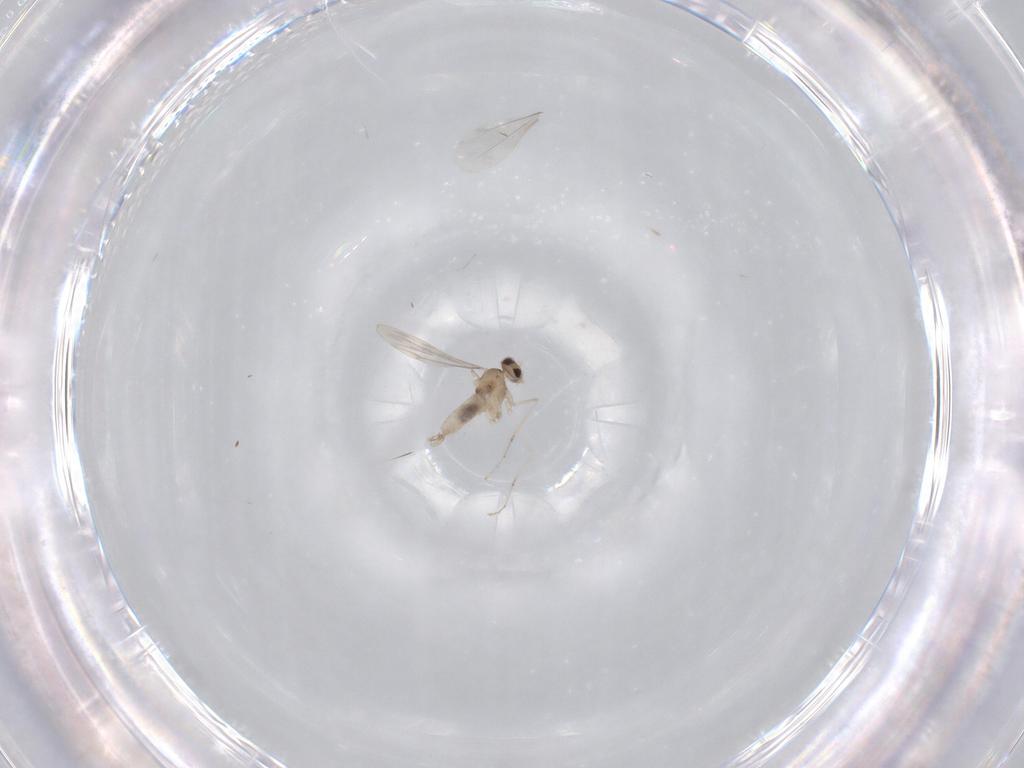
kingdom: Animalia
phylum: Arthropoda
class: Insecta
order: Diptera
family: Cecidomyiidae
